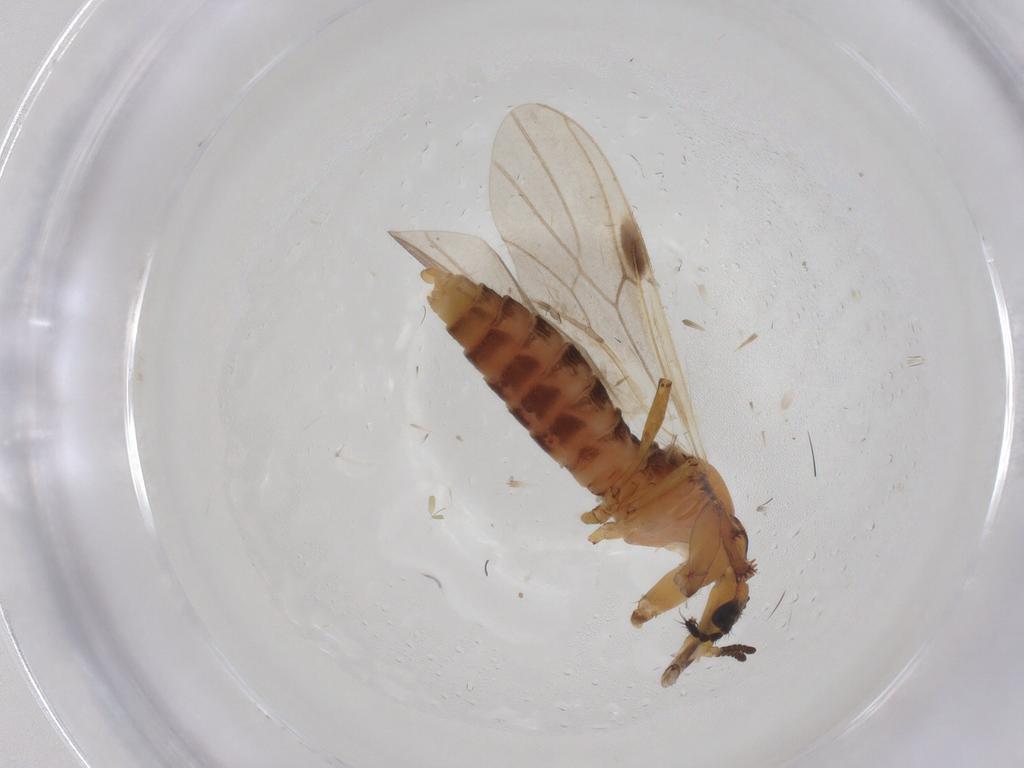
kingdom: Animalia
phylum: Arthropoda
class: Insecta
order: Diptera
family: Bibionidae
